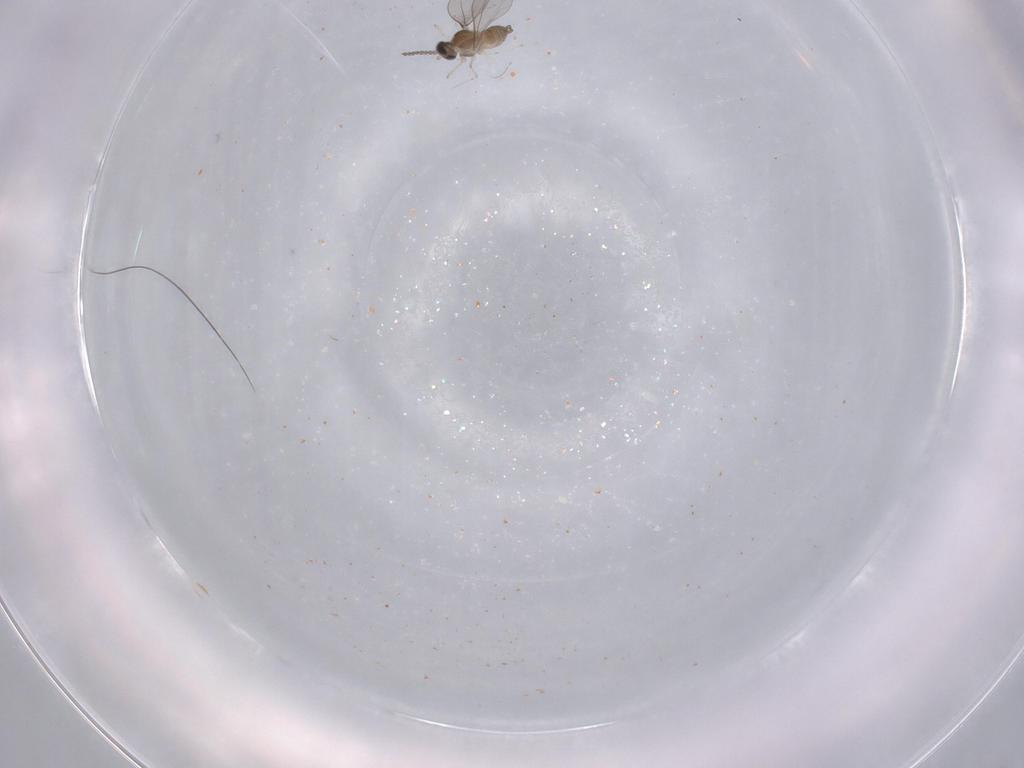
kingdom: Animalia
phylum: Arthropoda
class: Insecta
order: Diptera
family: Cecidomyiidae
